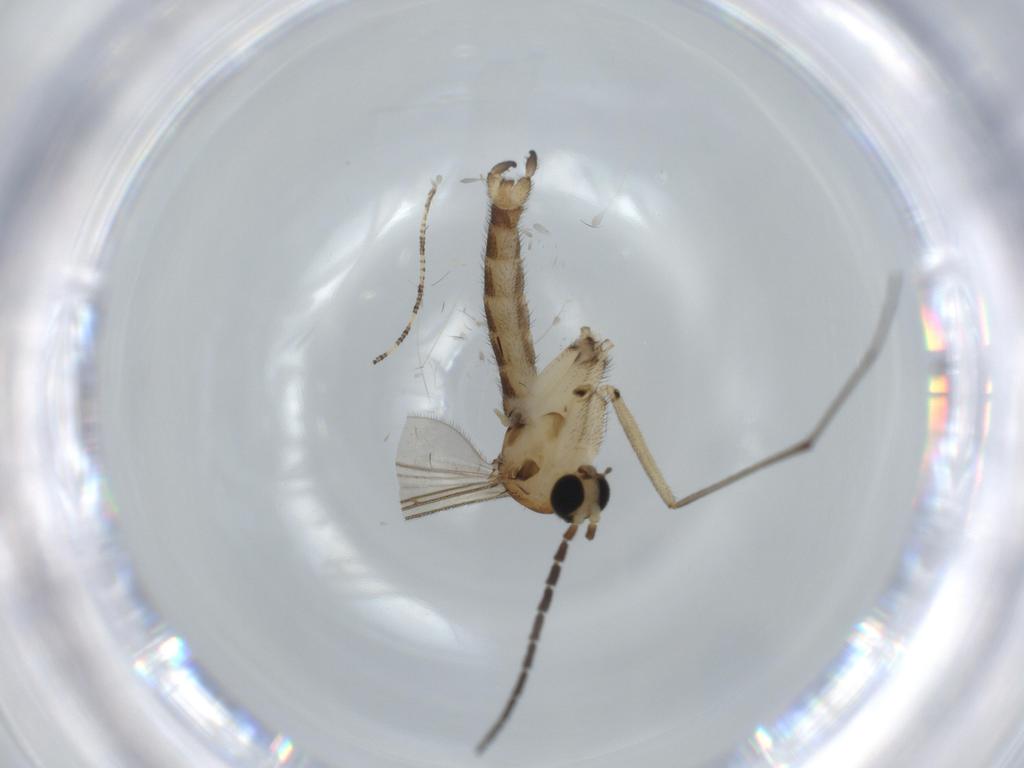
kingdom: Animalia
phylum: Arthropoda
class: Insecta
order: Diptera
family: Sciaridae
